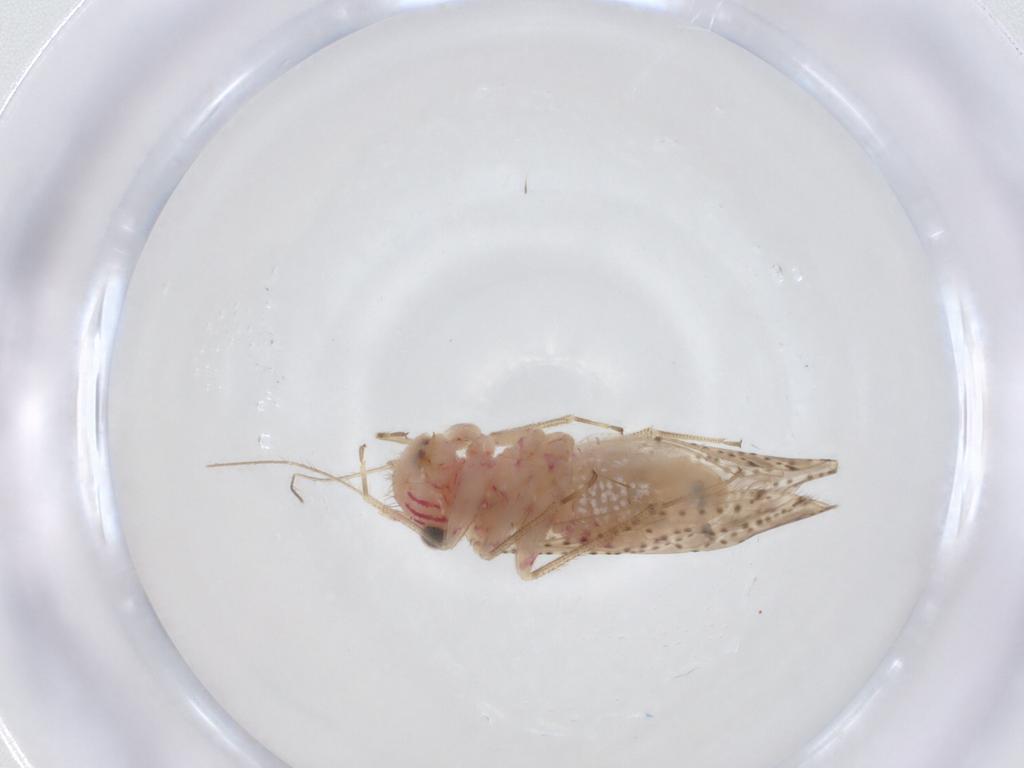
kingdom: Animalia
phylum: Arthropoda
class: Insecta
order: Psocodea
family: Philotarsidae
